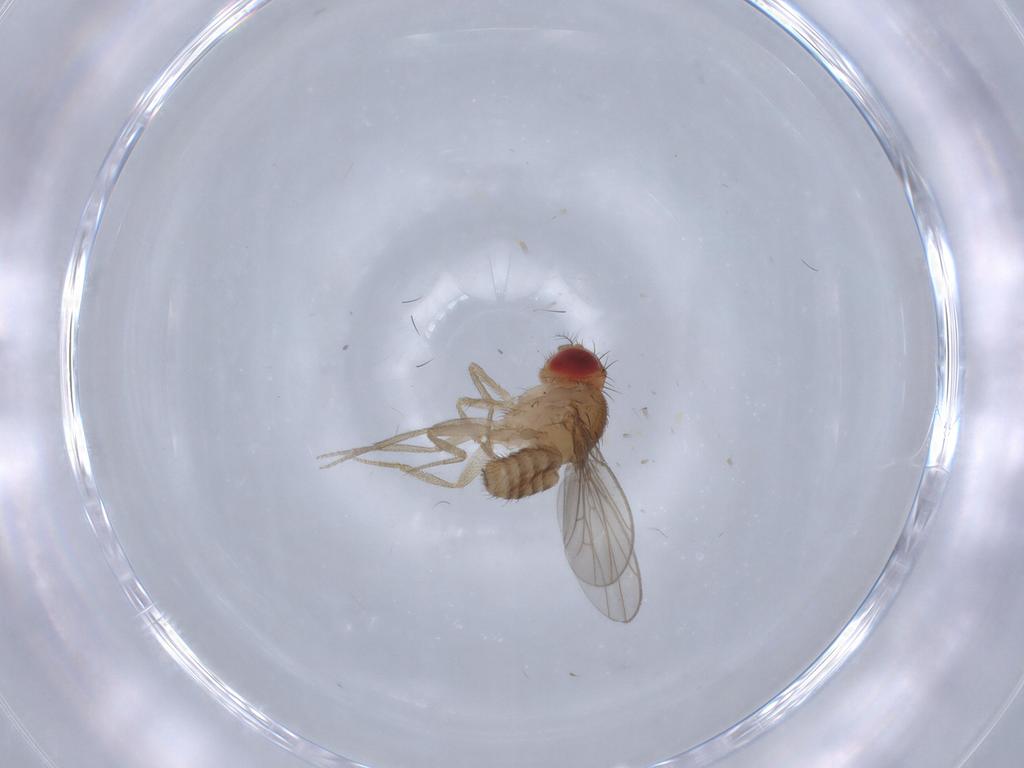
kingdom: Animalia
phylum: Arthropoda
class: Insecta
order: Diptera
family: Drosophilidae
